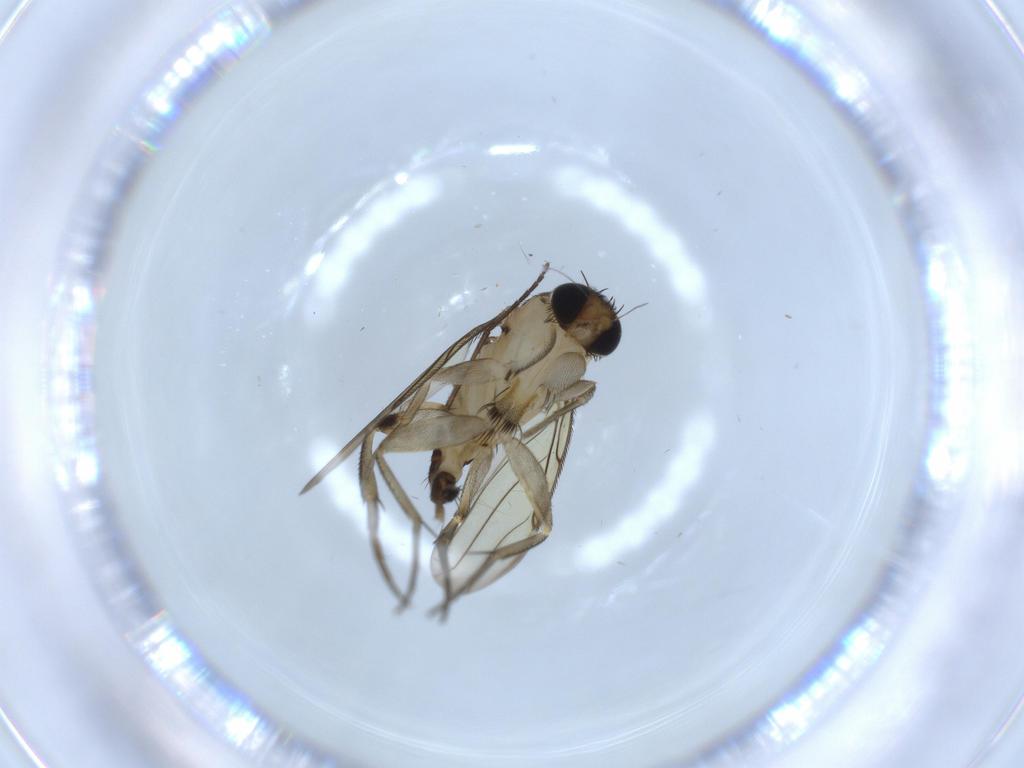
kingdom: Animalia
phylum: Arthropoda
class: Insecta
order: Diptera
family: Phoridae
